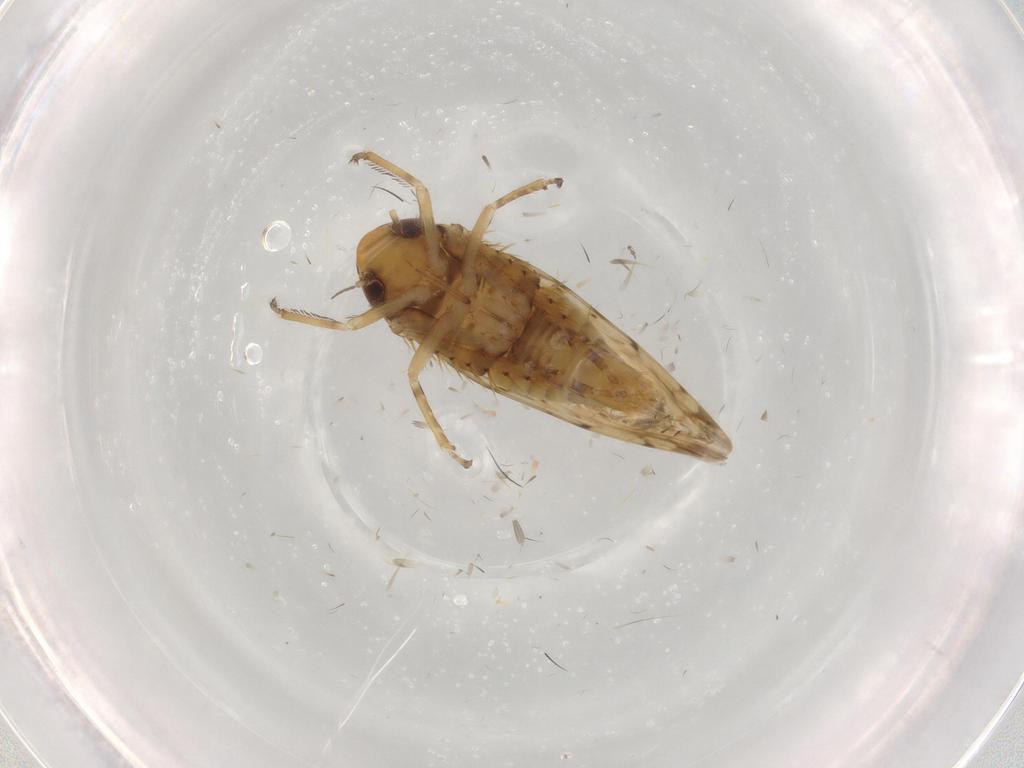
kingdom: Animalia
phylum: Arthropoda
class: Insecta
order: Hemiptera
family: Cicadellidae
